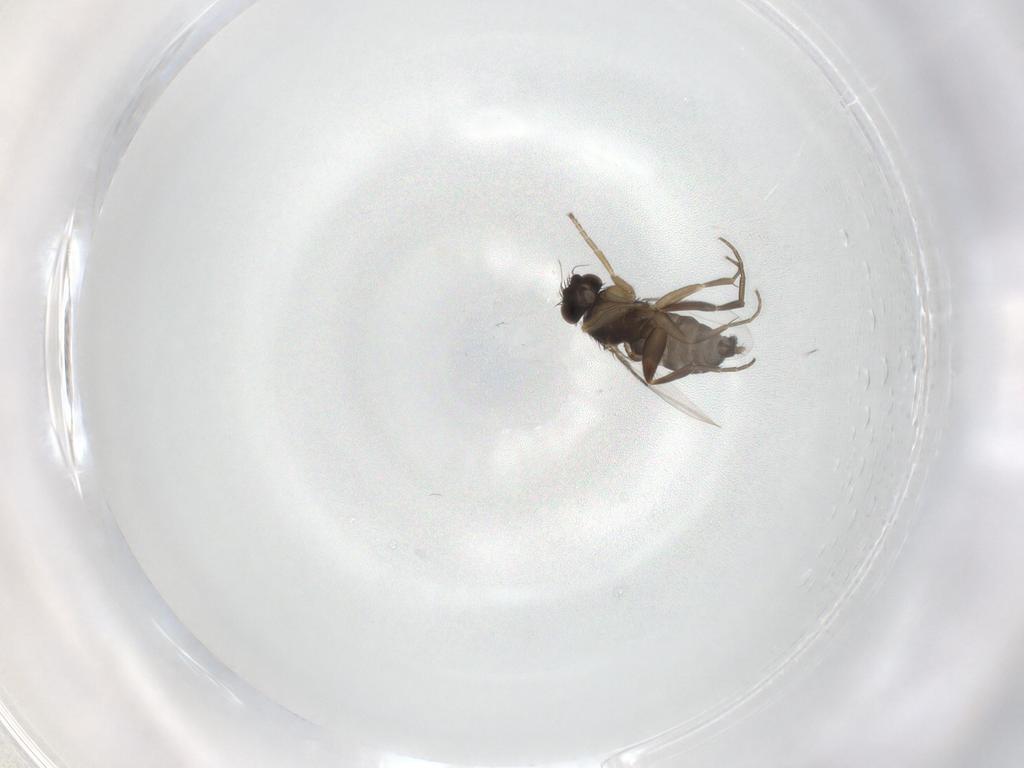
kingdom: Animalia
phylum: Arthropoda
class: Insecta
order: Diptera
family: Phoridae
